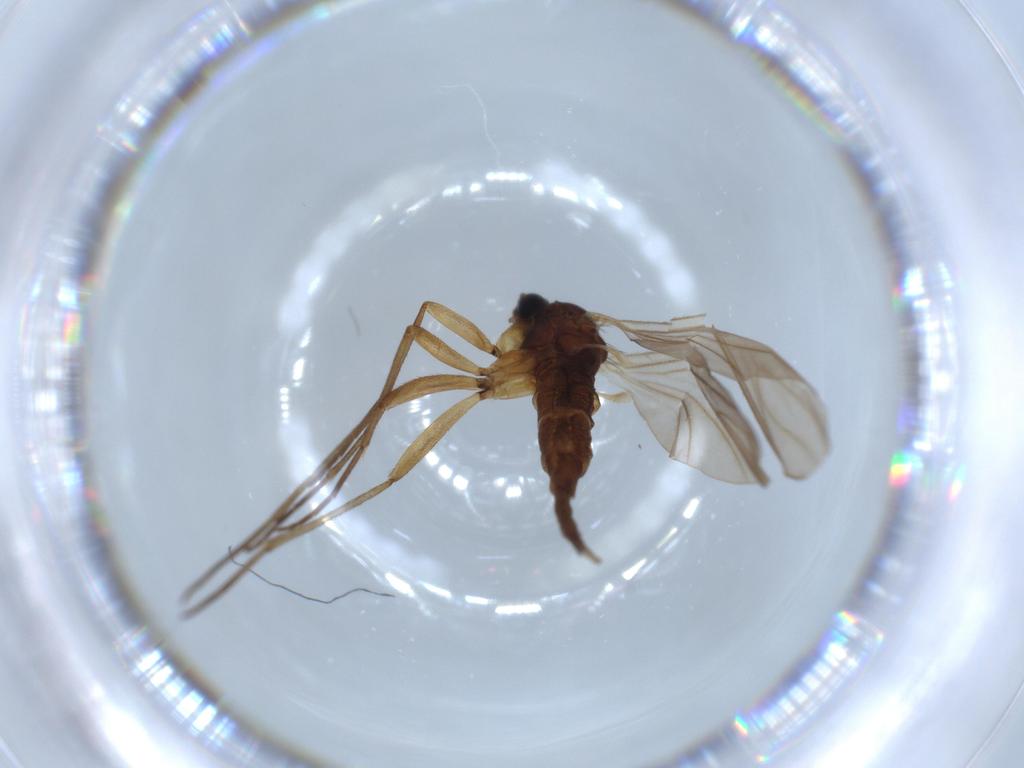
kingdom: Animalia
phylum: Arthropoda
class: Insecta
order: Diptera
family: Sciaridae
